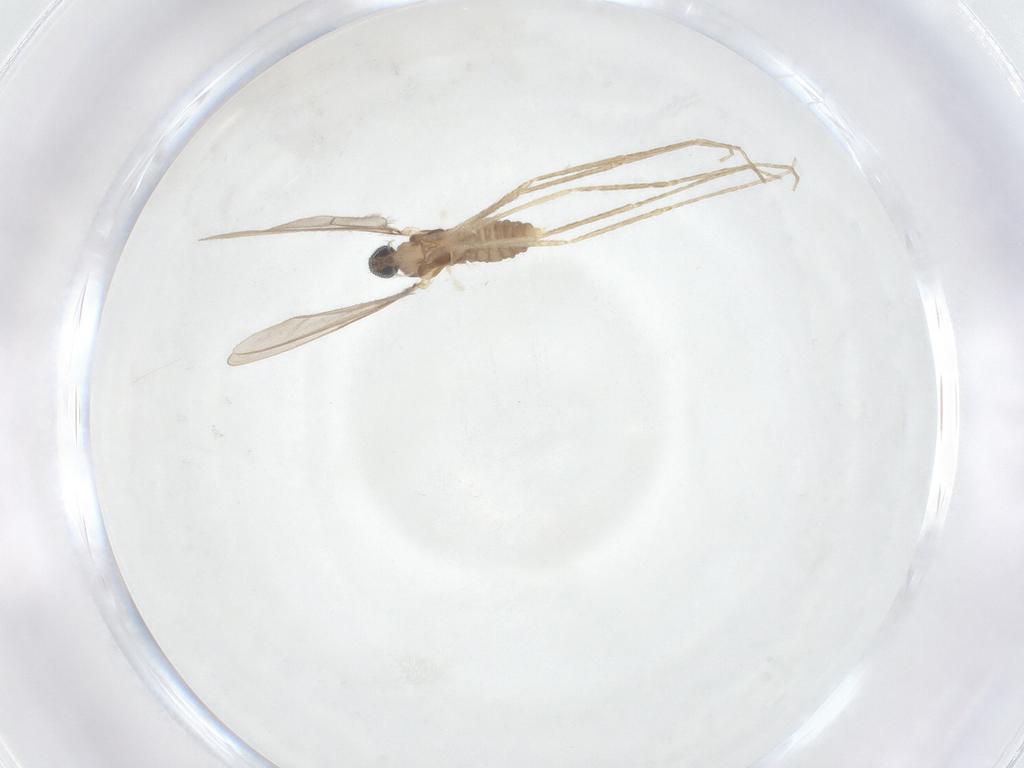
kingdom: Animalia
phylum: Arthropoda
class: Insecta
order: Diptera
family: Cecidomyiidae
